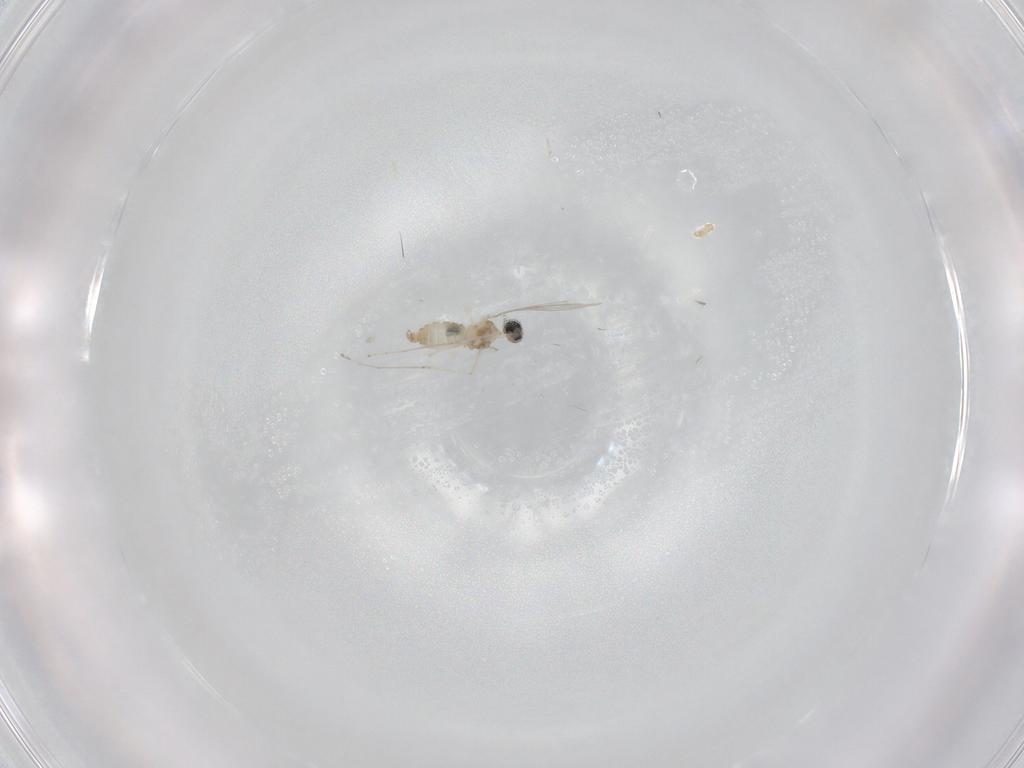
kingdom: Animalia
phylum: Arthropoda
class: Insecta
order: Diptera
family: Cecidomyiidae
